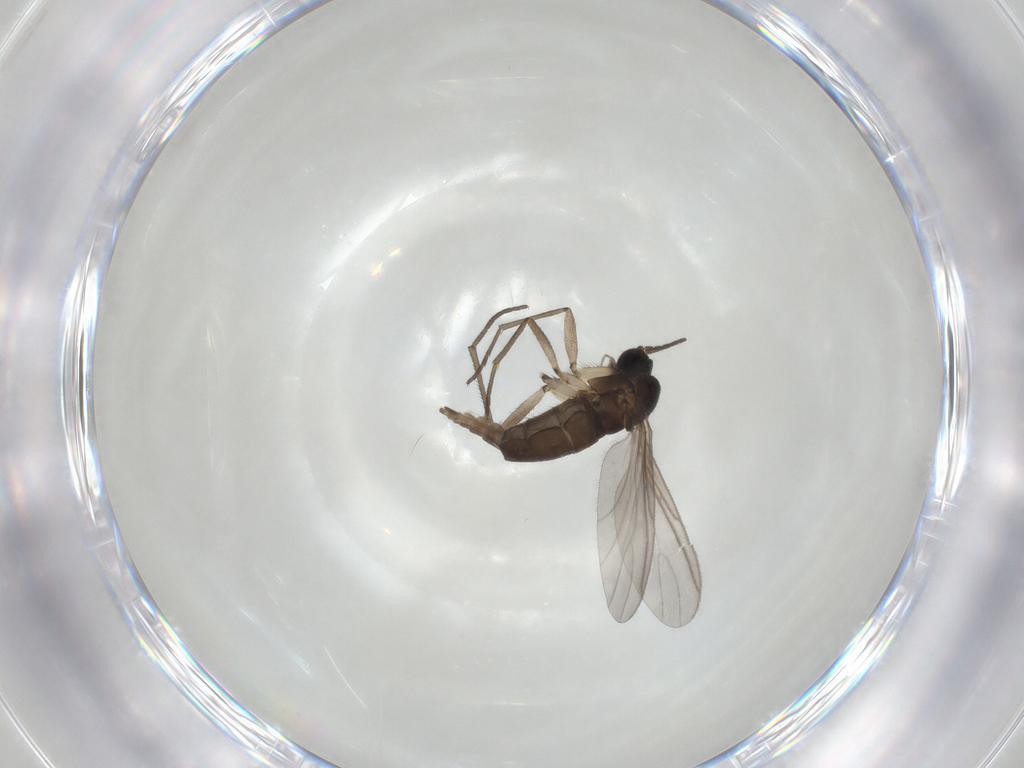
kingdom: Animalia
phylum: Arthropoda
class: Insecta
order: Diptera
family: Sciaridae
